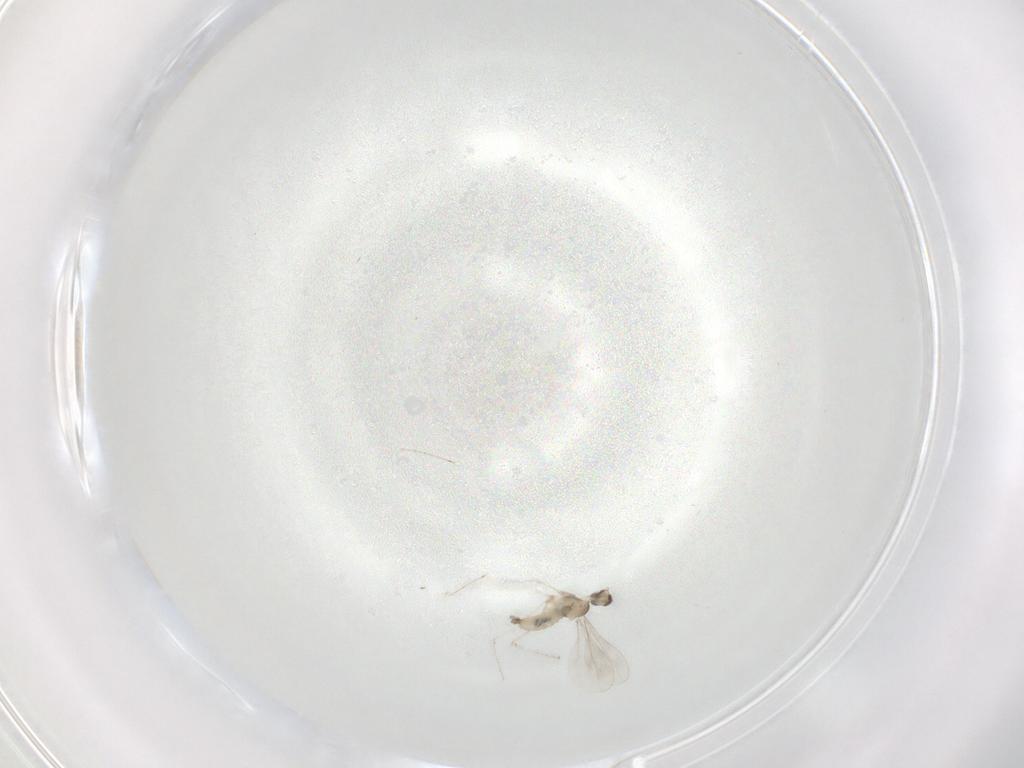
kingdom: Animalia
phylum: Arthropoda
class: Insecta
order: Diptera
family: Cecidomyiidae
